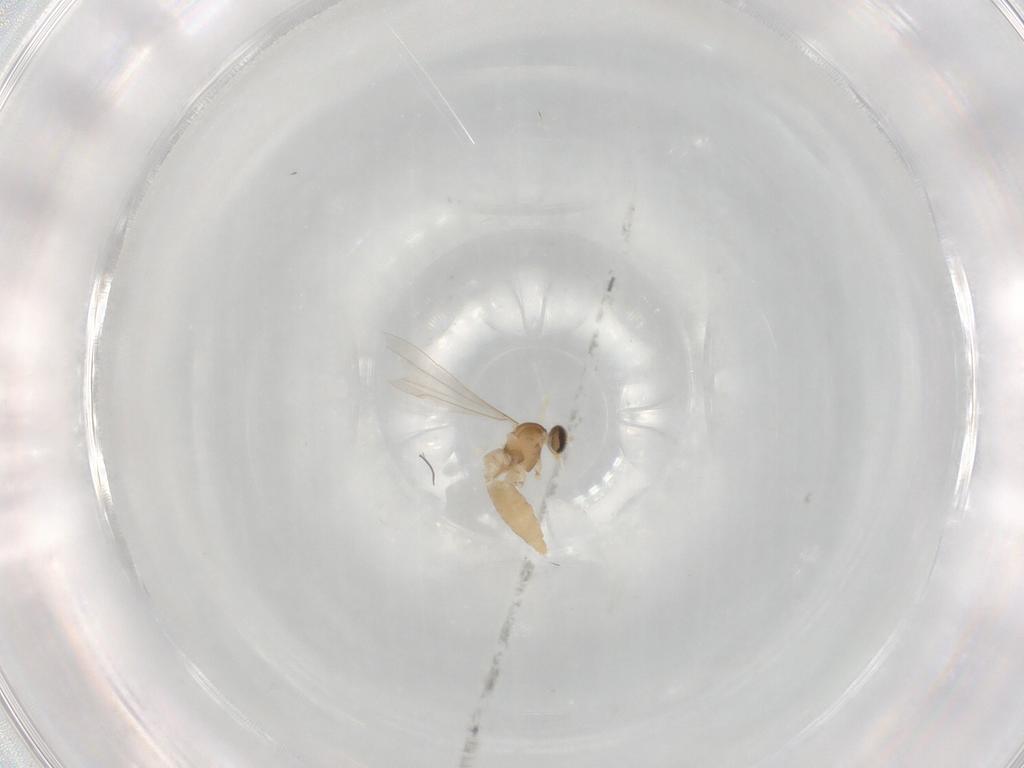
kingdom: Animalia
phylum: Arthropoda
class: Insecta
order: Diptera
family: Cecidomyiidae
